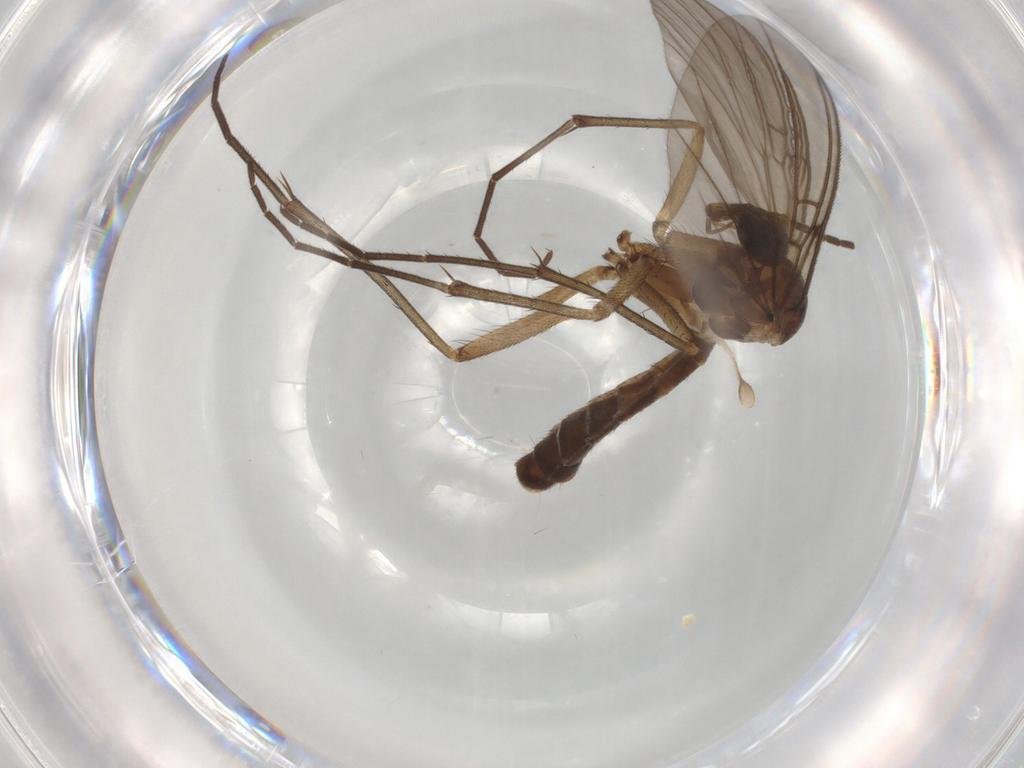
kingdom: Animalia
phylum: Arthropoda
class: Insecta
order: Diptera
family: Mycetophilidae
